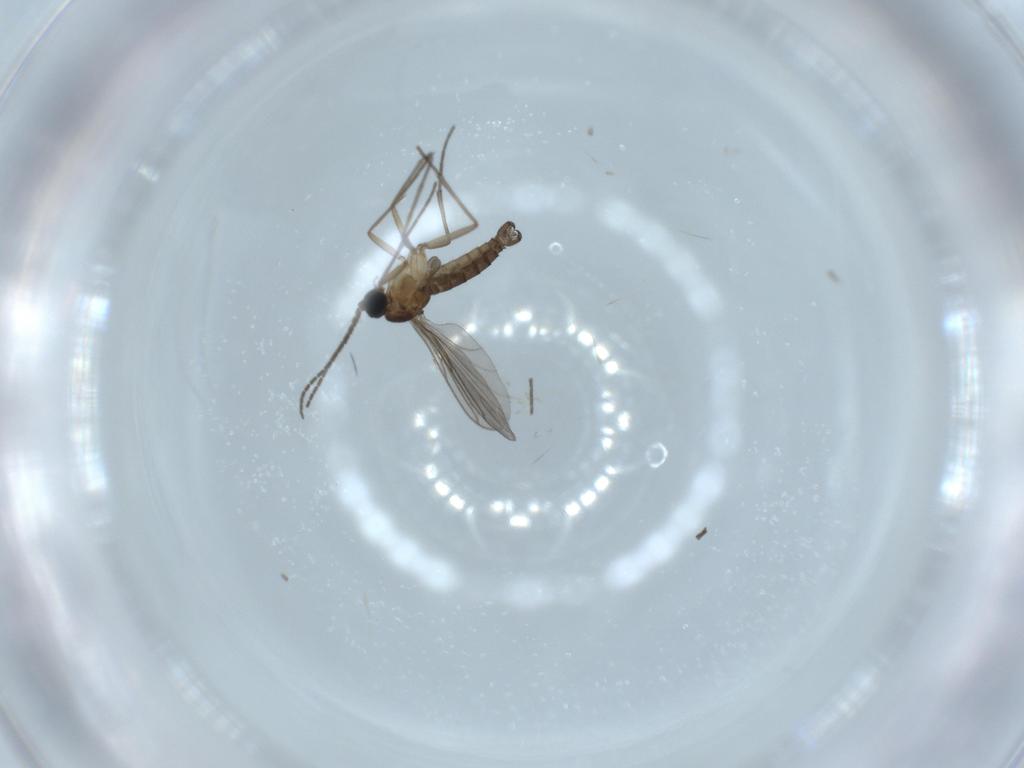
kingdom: Animalia
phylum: Arthropoda
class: Insecta
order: Diptera
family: Sciaridae
